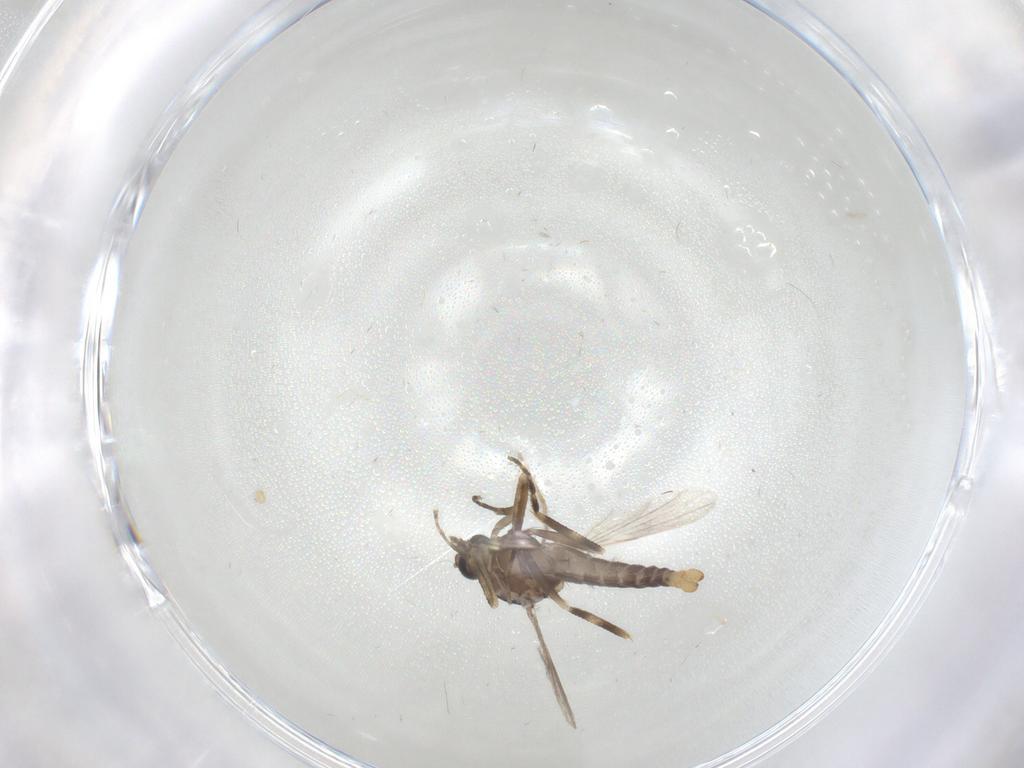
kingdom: Animalia
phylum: Arthropoda
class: Insecta
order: Diptera
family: Ceratopogonidae
